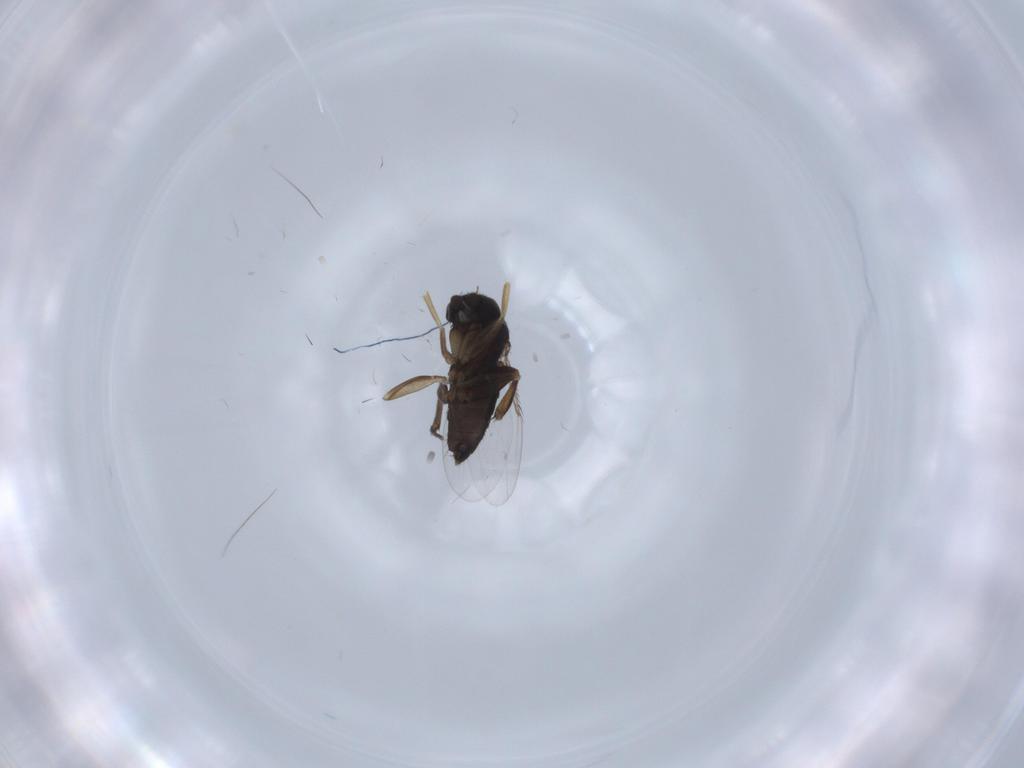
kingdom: Animalia
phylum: Arthropoda
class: Insecta
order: Diptera
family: Phoridae
